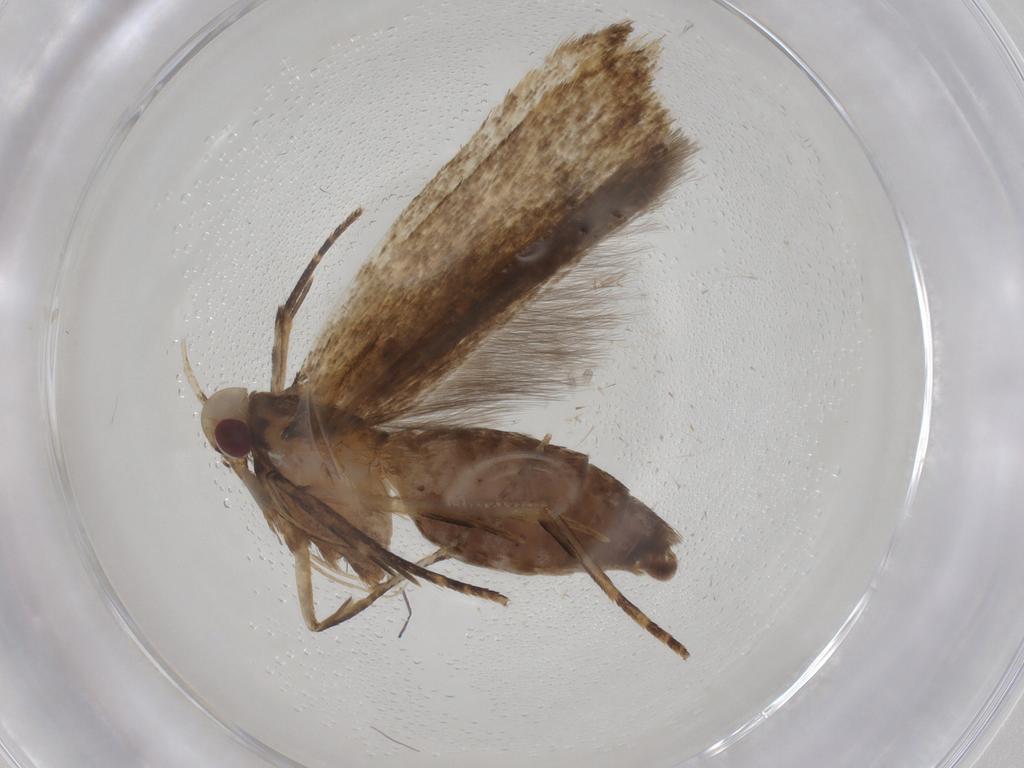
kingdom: Animalia
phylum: Arthropoda
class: Insecta
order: Lepidoptera
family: Gelechiidae
